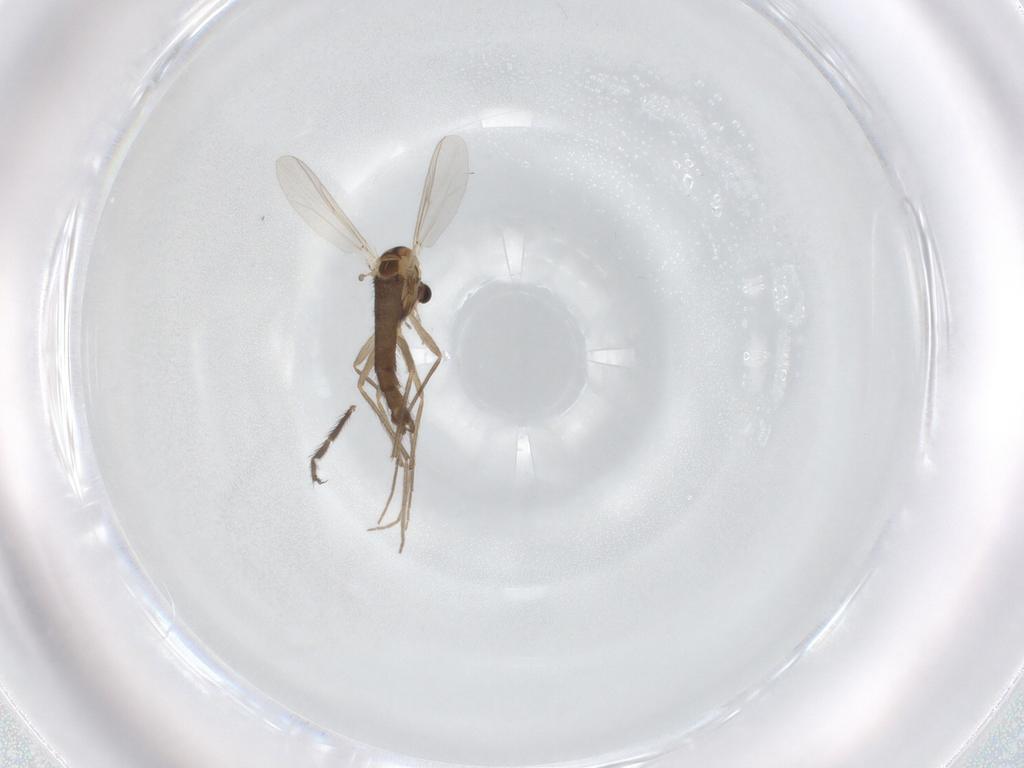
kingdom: Animalia
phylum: Arthropoda
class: Insecta
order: Diptera
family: Chironomidae
